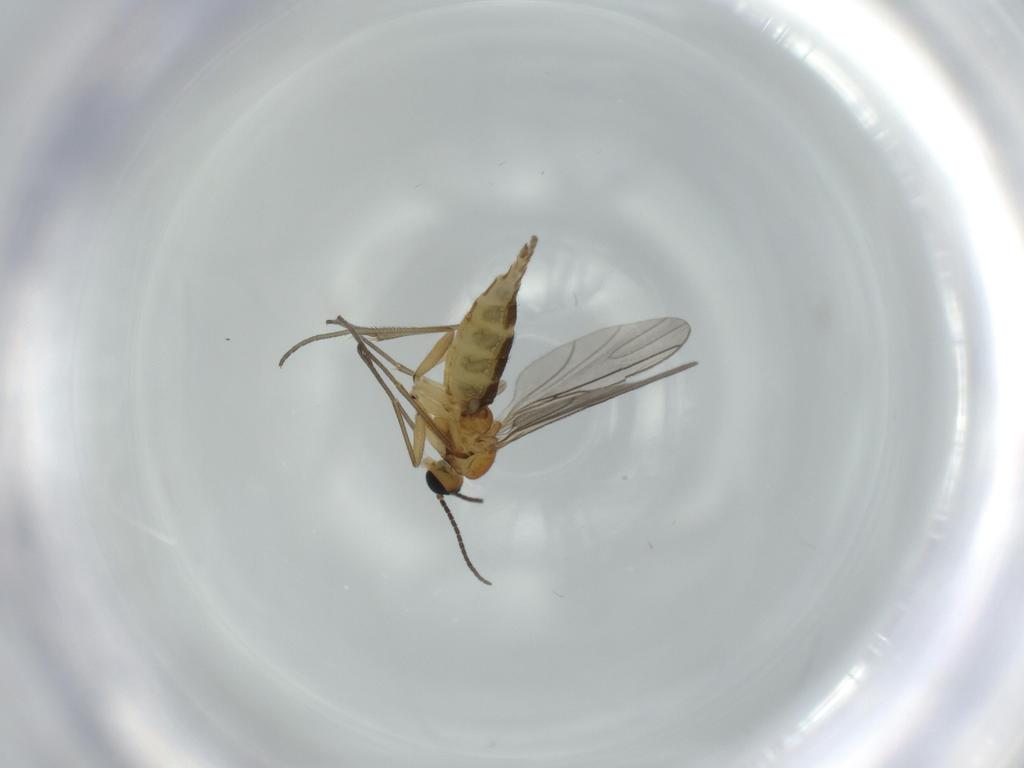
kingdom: Animalia
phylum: Arthropoda
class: Insecta
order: Diptera
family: Sciaridae
